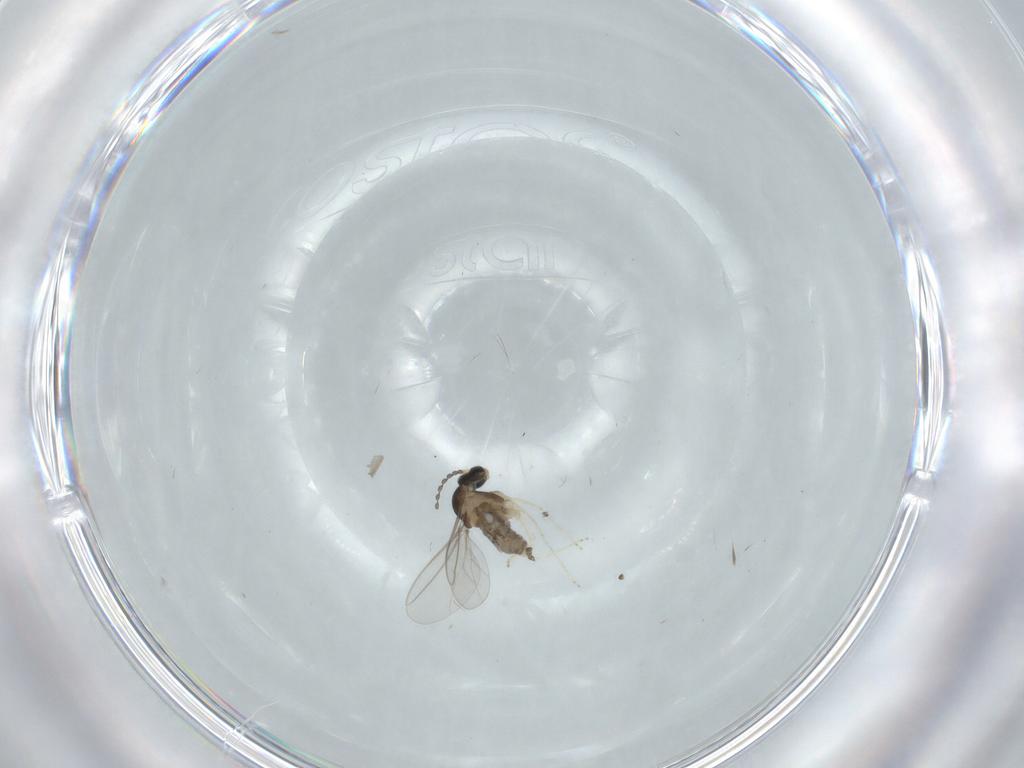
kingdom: Animalia
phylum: Arthropoda
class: Insecta
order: Diptera
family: Cecidomyiidae
